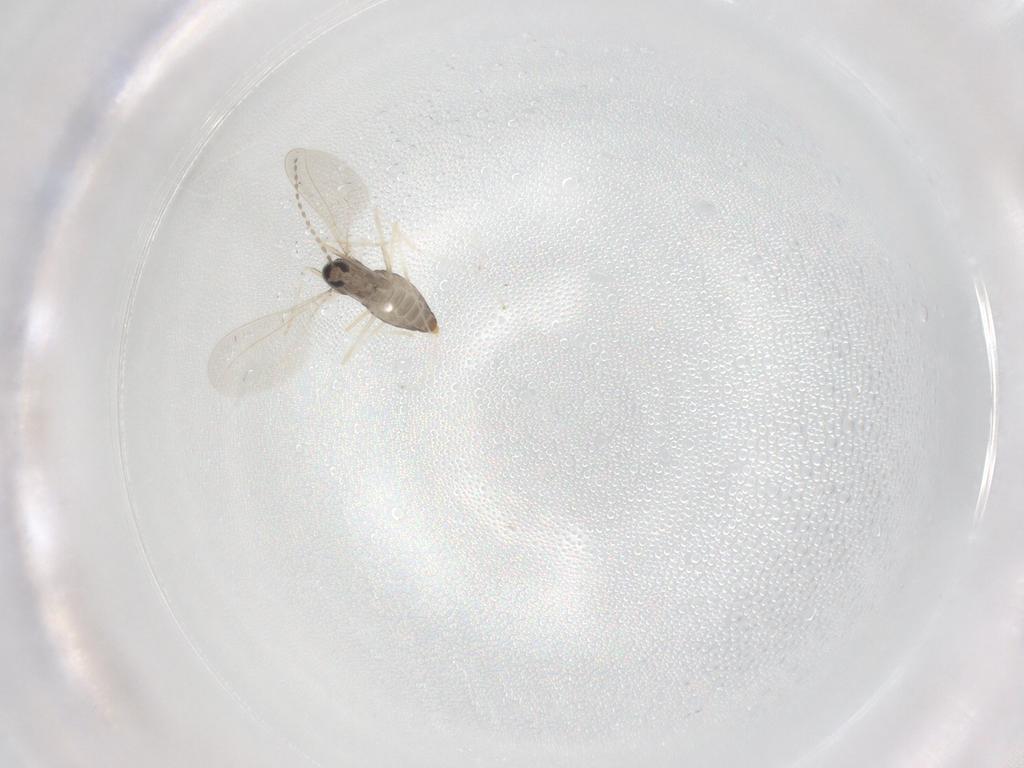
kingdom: Animalia
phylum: Arthropoda
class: Insecta
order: Diptera
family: Cecidomyiidae
